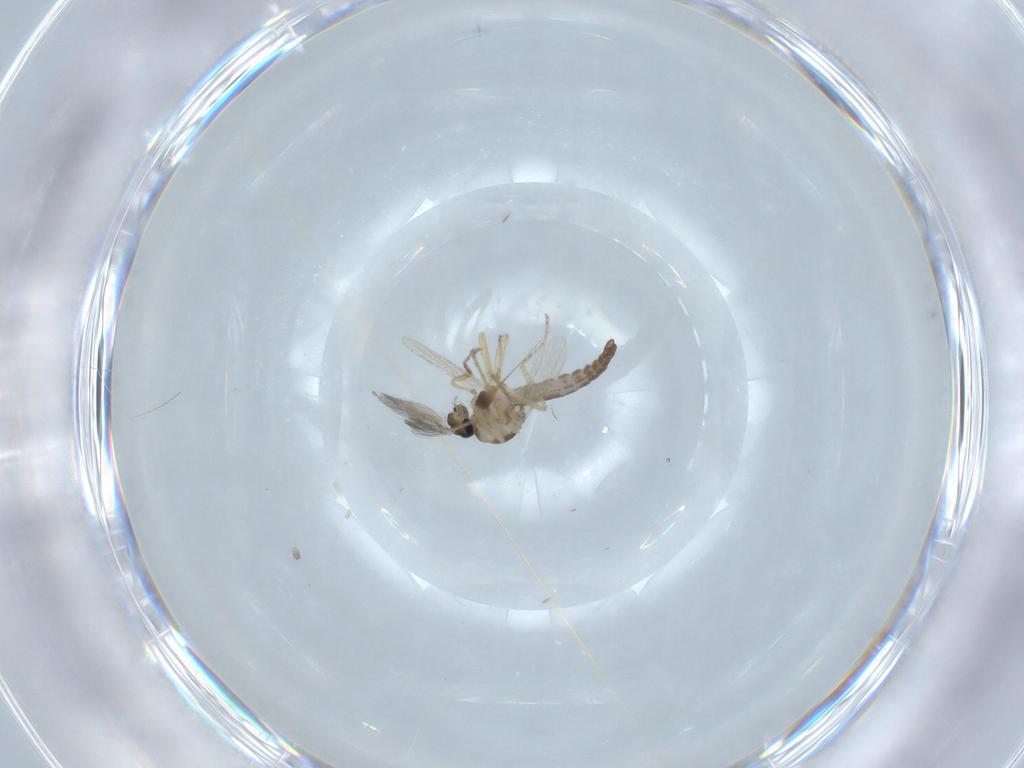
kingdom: Animalia
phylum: Arthropoda
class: Insecta
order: Diptera
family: Ceratopogonidae
